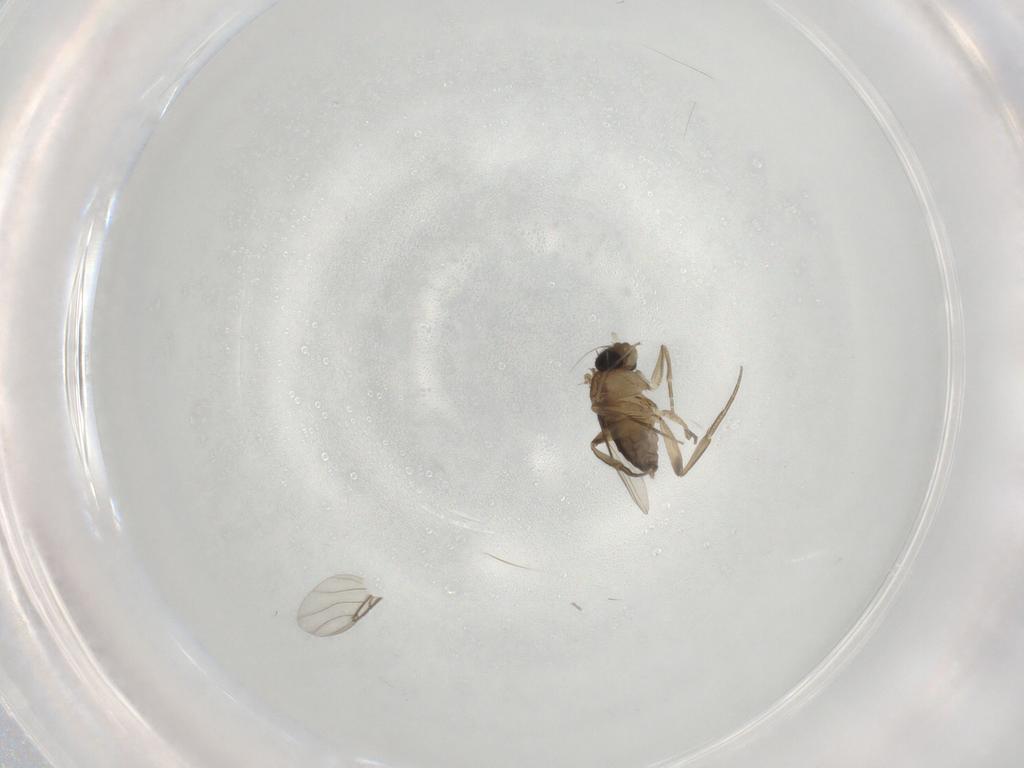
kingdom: Animalia
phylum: Arthropoda
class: Insecta
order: Diptera
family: Phoridae
